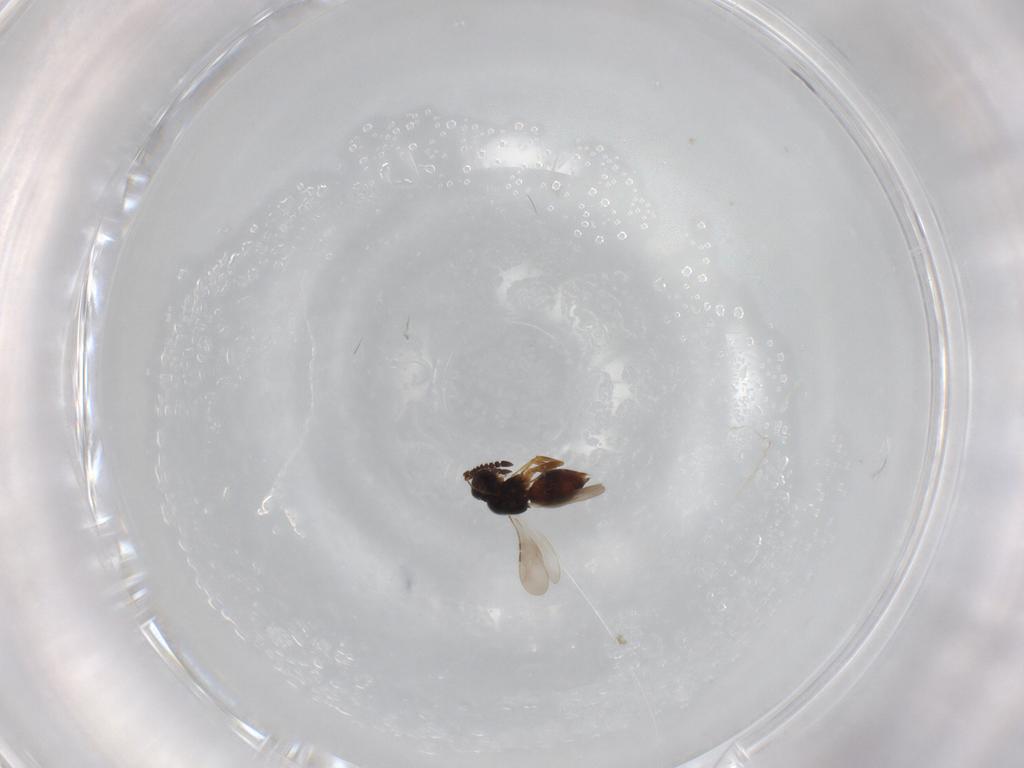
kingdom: Animalia
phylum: Arthropoda
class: Insecta
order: Hymenoptera
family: Ceraphronidae
